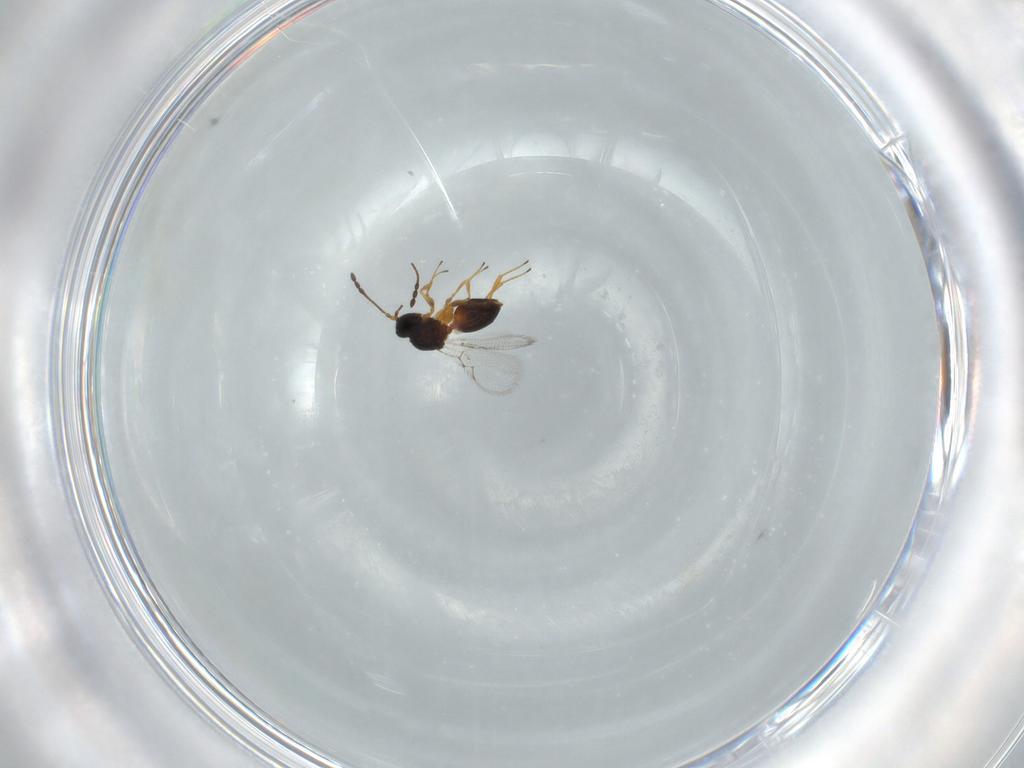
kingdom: Animalia
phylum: Arthropoda
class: Insecta
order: Hymenoptera
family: Figitidae
